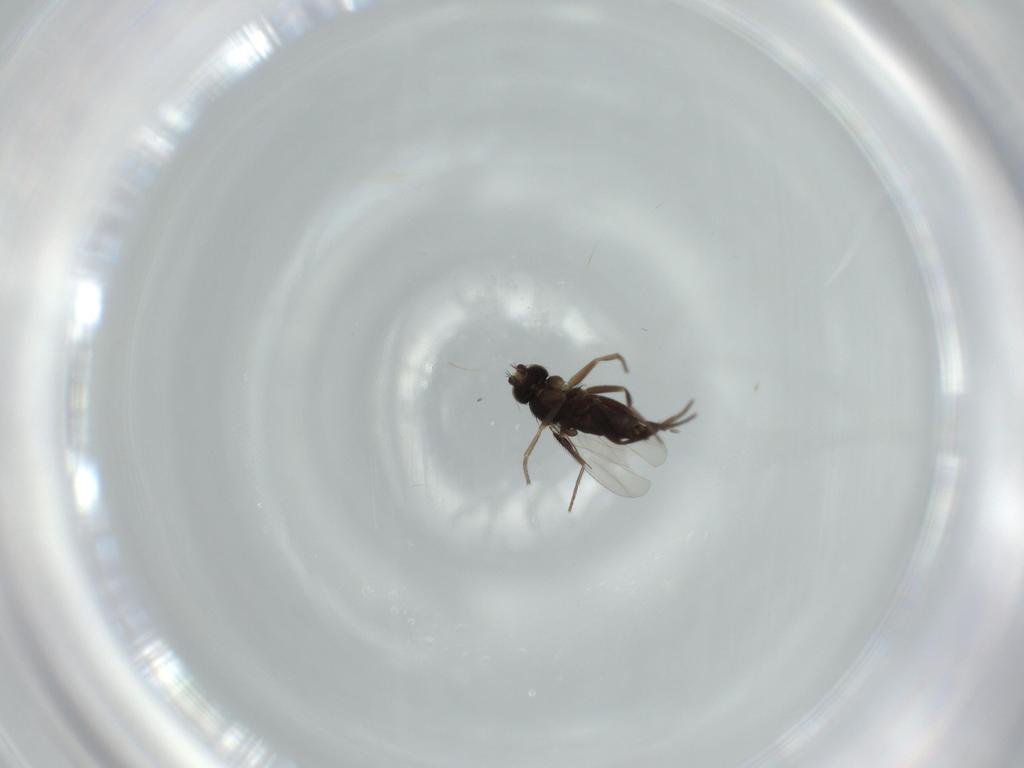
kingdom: Animalia
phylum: Arthropoda
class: Insecta
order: Diptera
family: Phoridae
